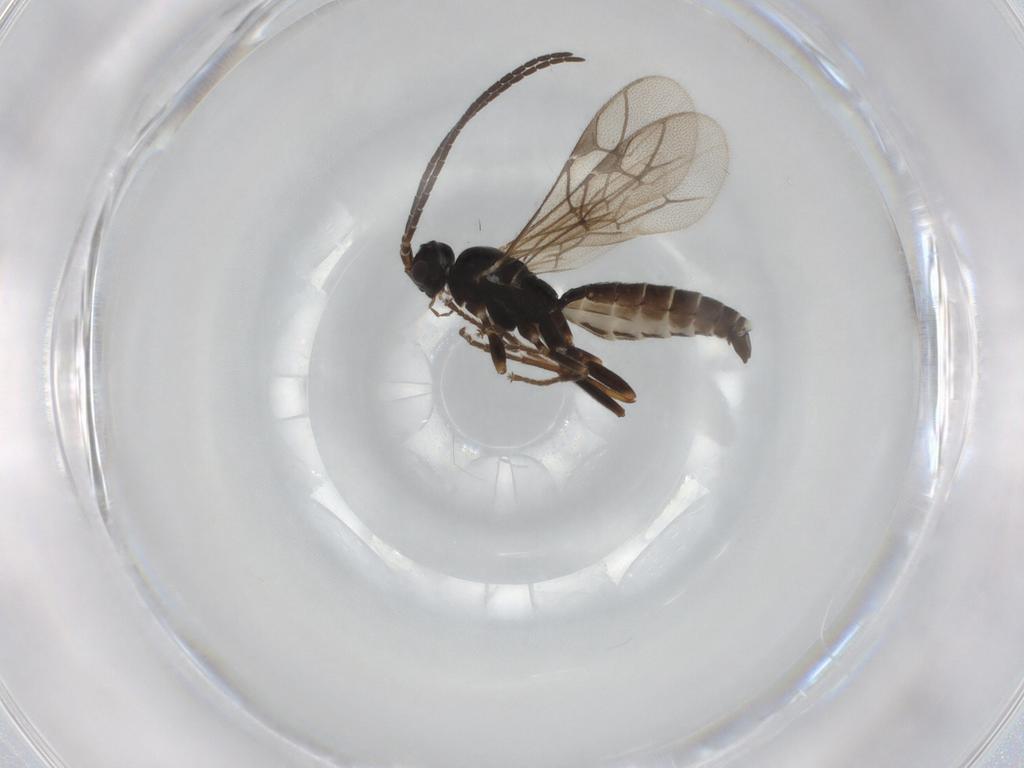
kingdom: Animalia
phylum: Arthropoda
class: Insecta
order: Hymenoptera
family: Ichneumonidae
